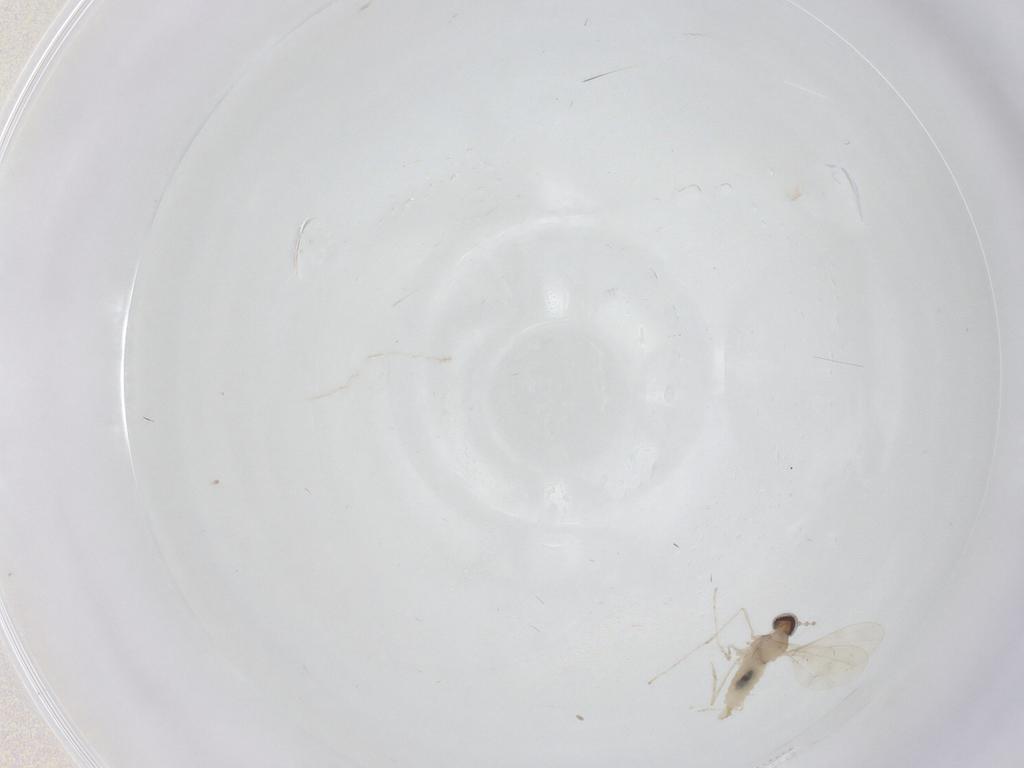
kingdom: Animalia
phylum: Arthropoda
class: Insecta
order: Diptera
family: Ceratopogonidae
